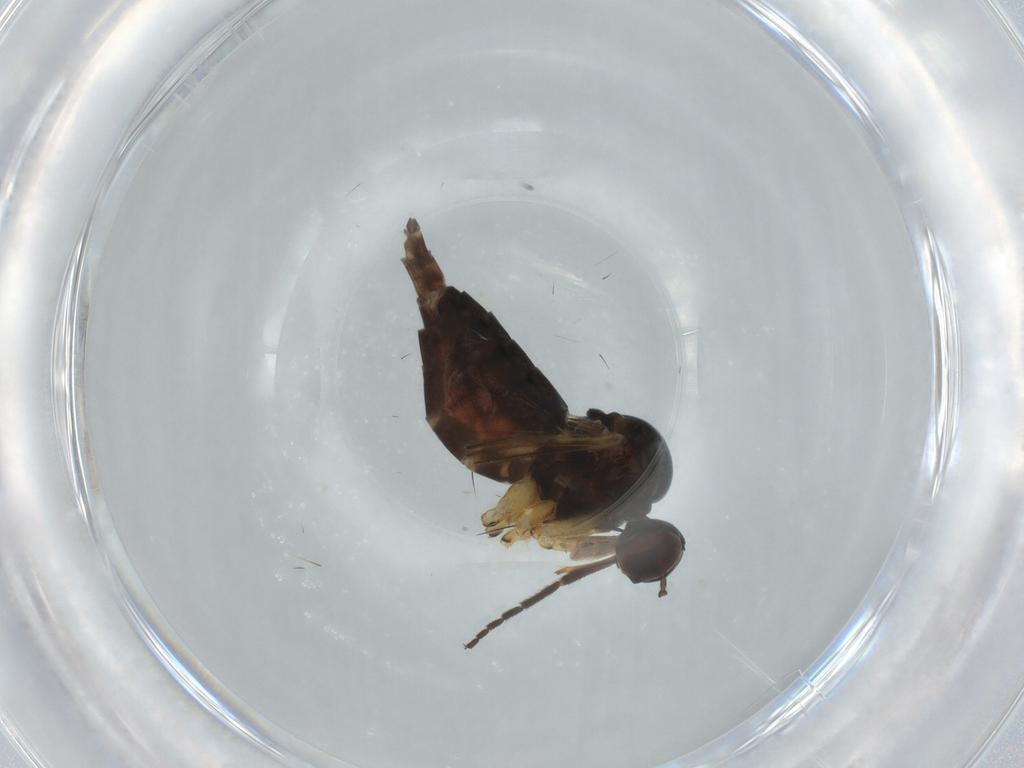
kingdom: Animalia
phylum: Arthropoda
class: Insecta
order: Diptera
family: Empididae
